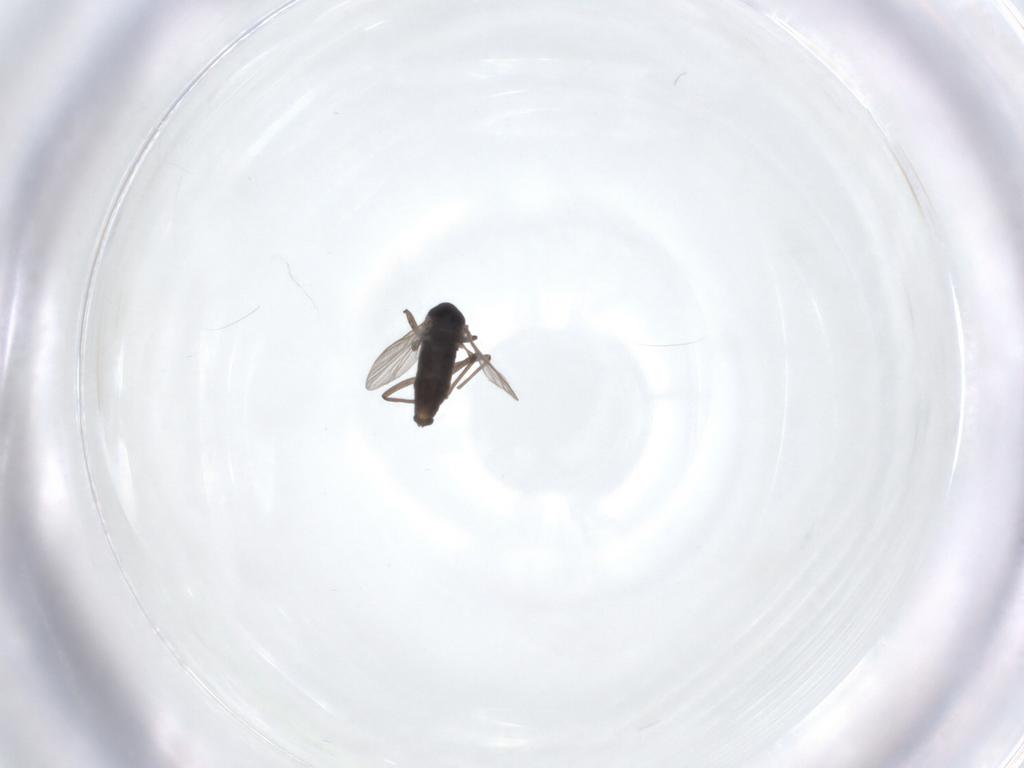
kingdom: Animalia
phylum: Arthropoda
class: Insecta
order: Diptera
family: Chironomidae
